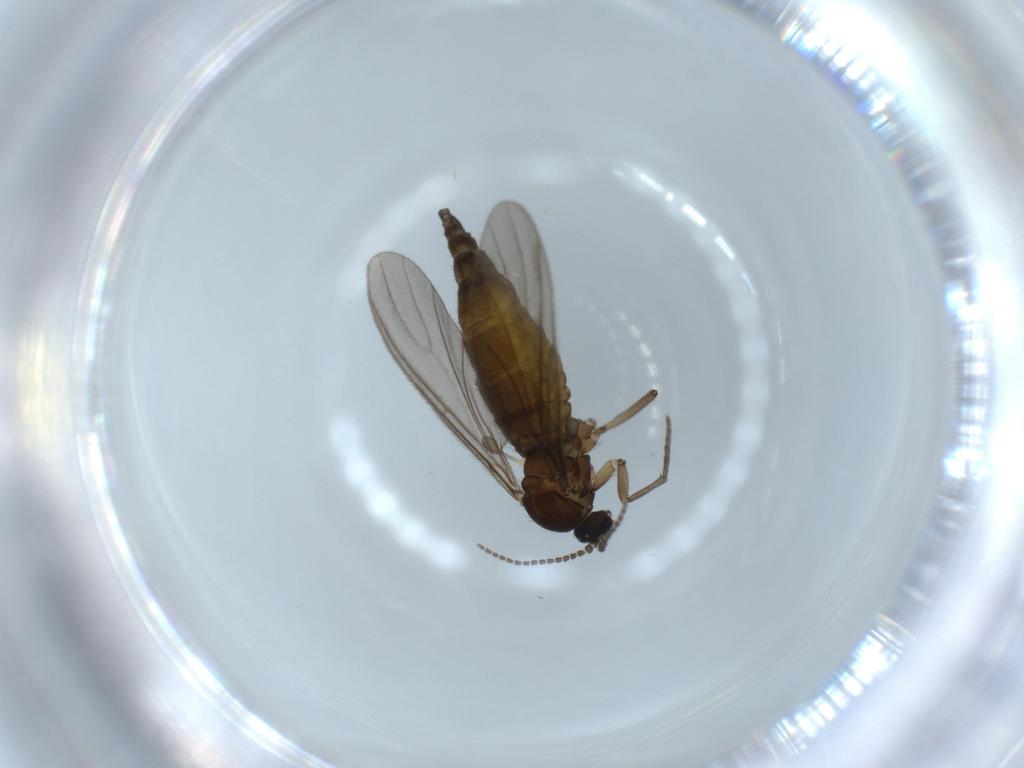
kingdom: Animalia
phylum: Arthropoda
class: Insecta
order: Diptera
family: Sciaridae
